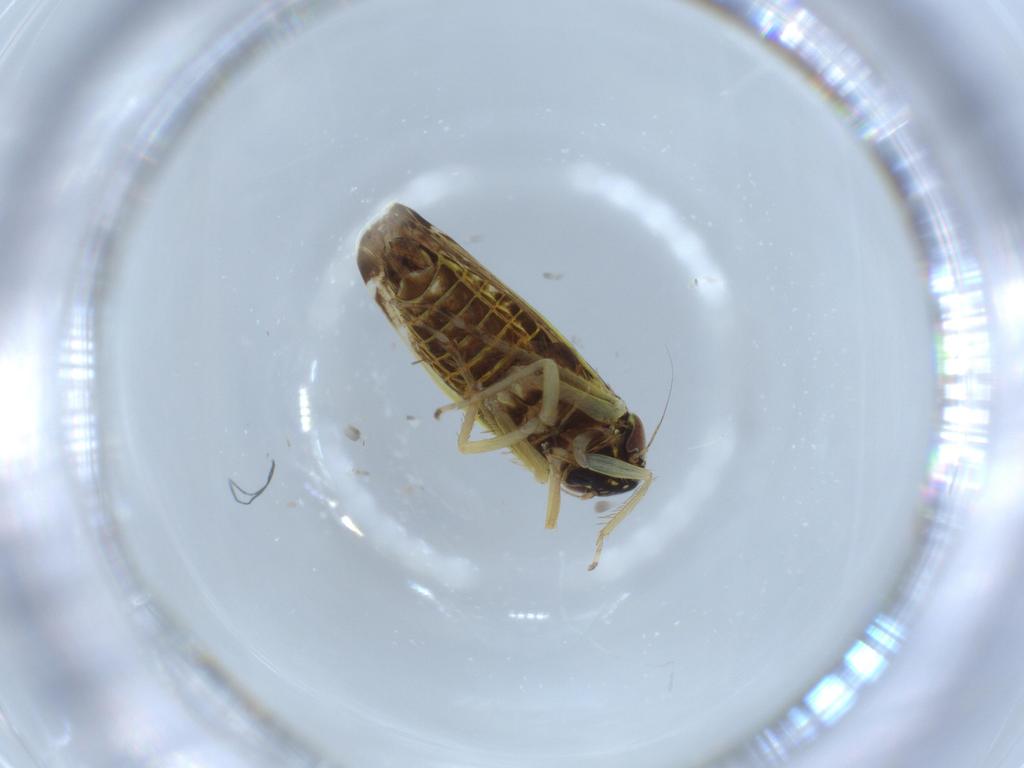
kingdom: Animalia
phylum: Arthropoda
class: Insecta
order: Hemiptera
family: Cicadellidae
